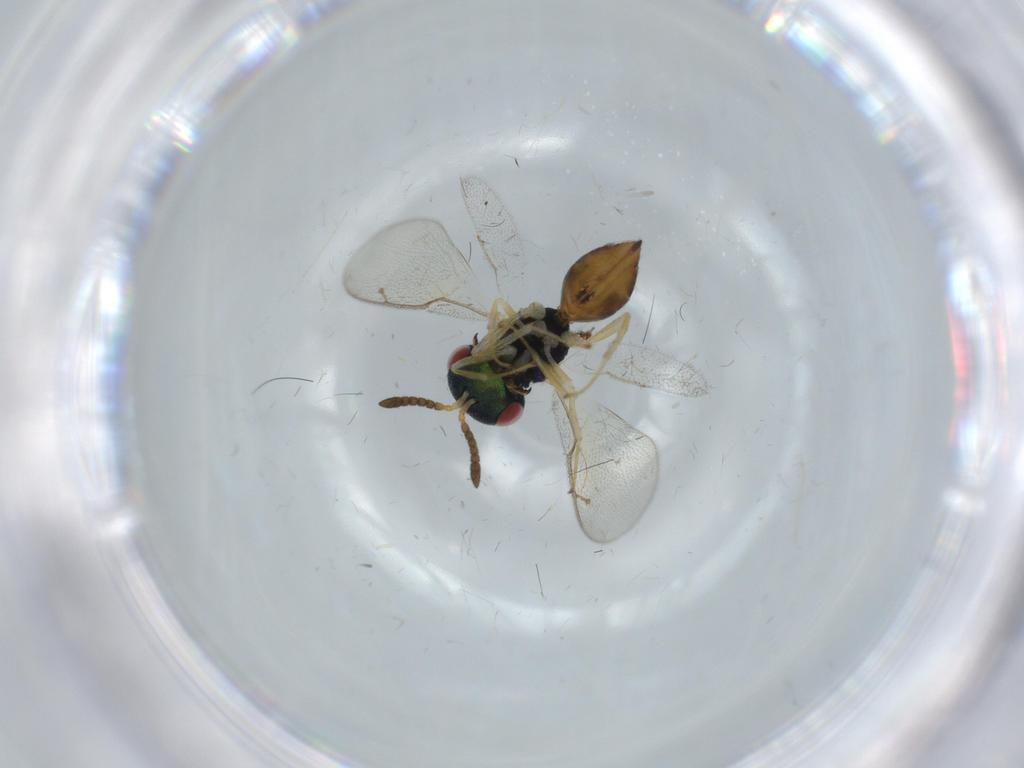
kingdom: Animalia
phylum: Arthropoda
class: Insecta
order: Hymenoptera
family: Pteromalidae
